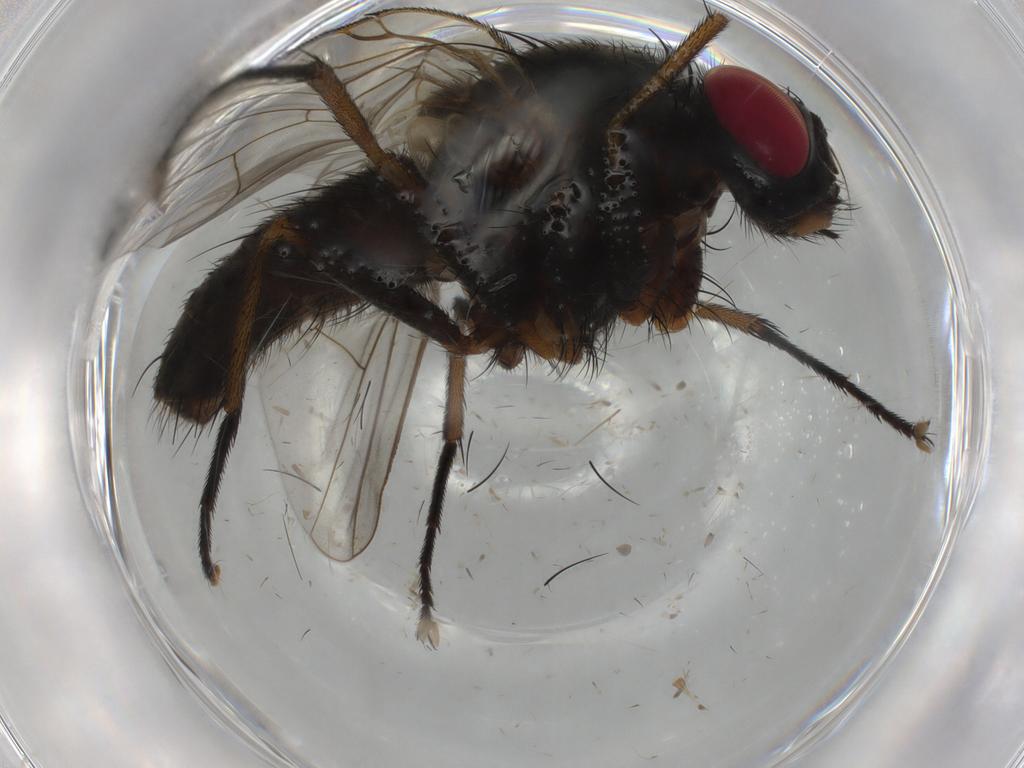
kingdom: Animalia
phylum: Arthropoda
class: Insecta
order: Diptera
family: Muscidae
